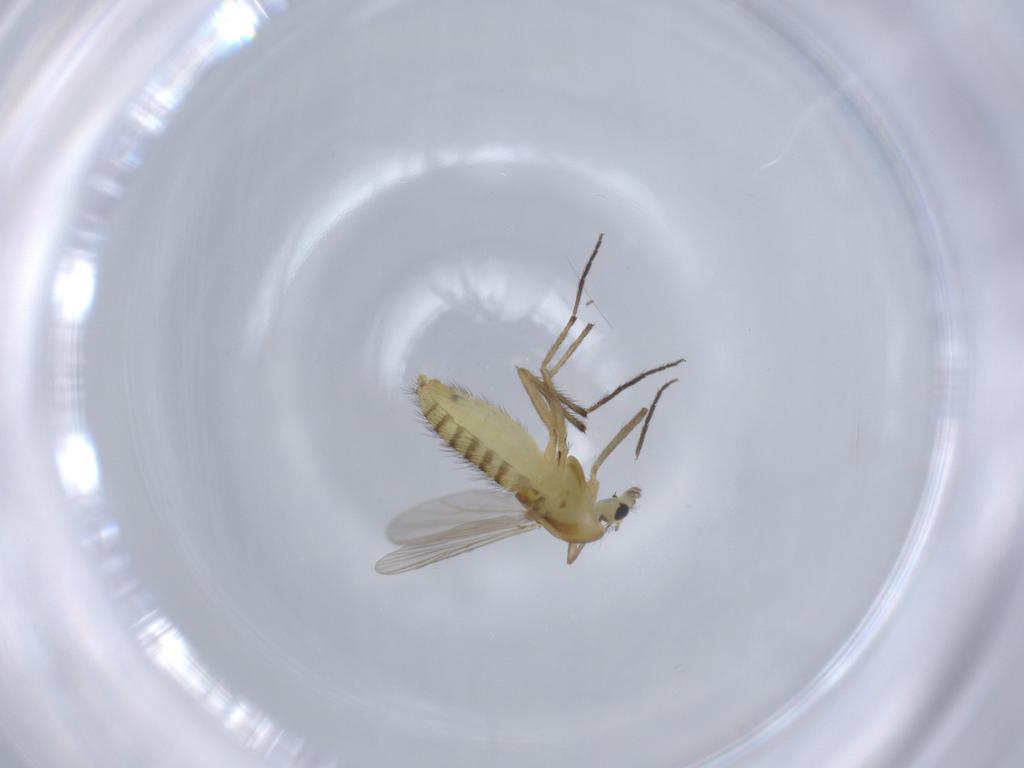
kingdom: Animalia
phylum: Arthropoda
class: Insecta
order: Diptera
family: Chironomidae
